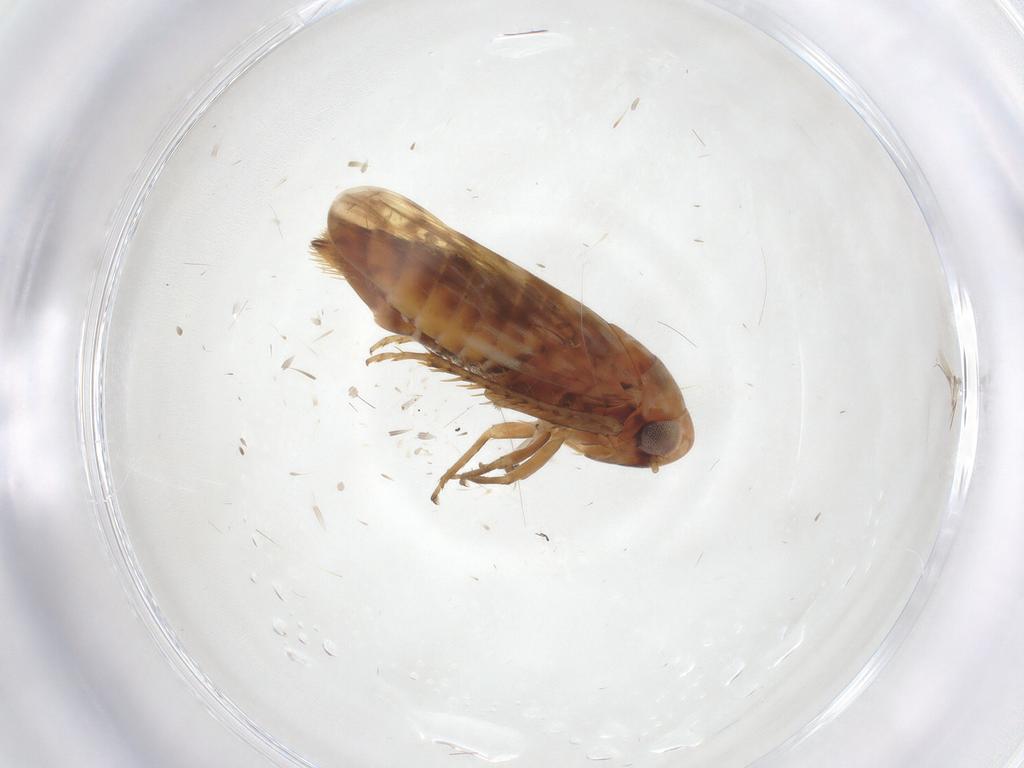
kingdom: Animalia
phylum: Arthropoda
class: Insecta
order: Hemiptera
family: Cicadellidae
